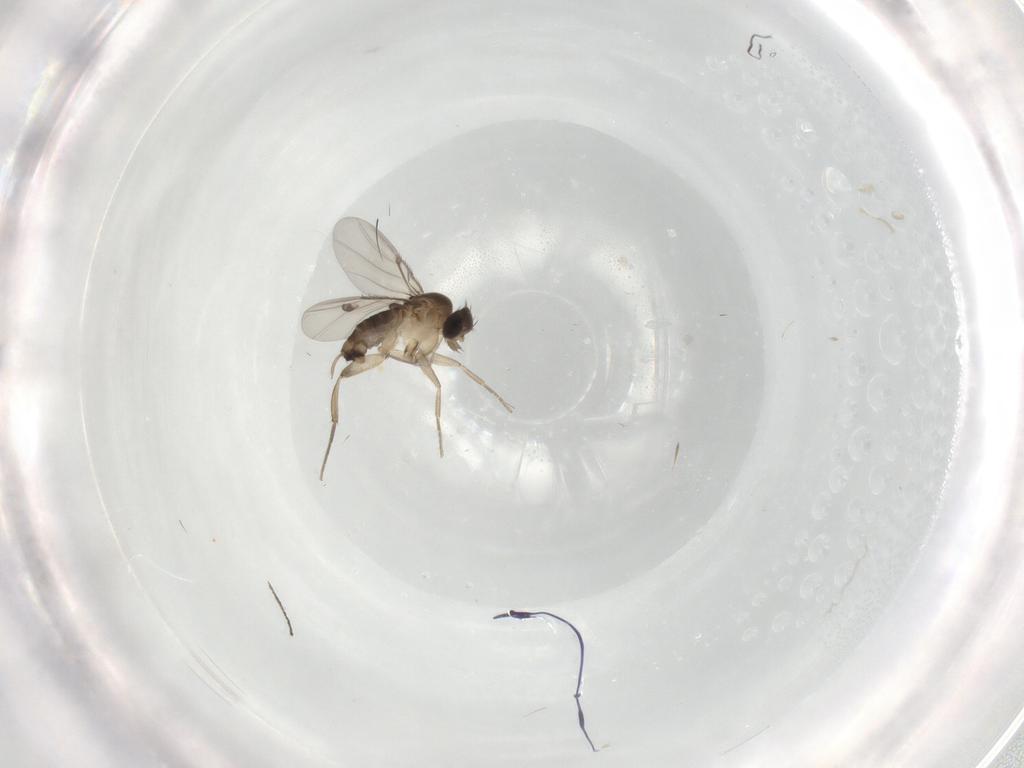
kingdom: Animalia
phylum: Arthropoda
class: Insecta
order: Diptera
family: Phoridae
